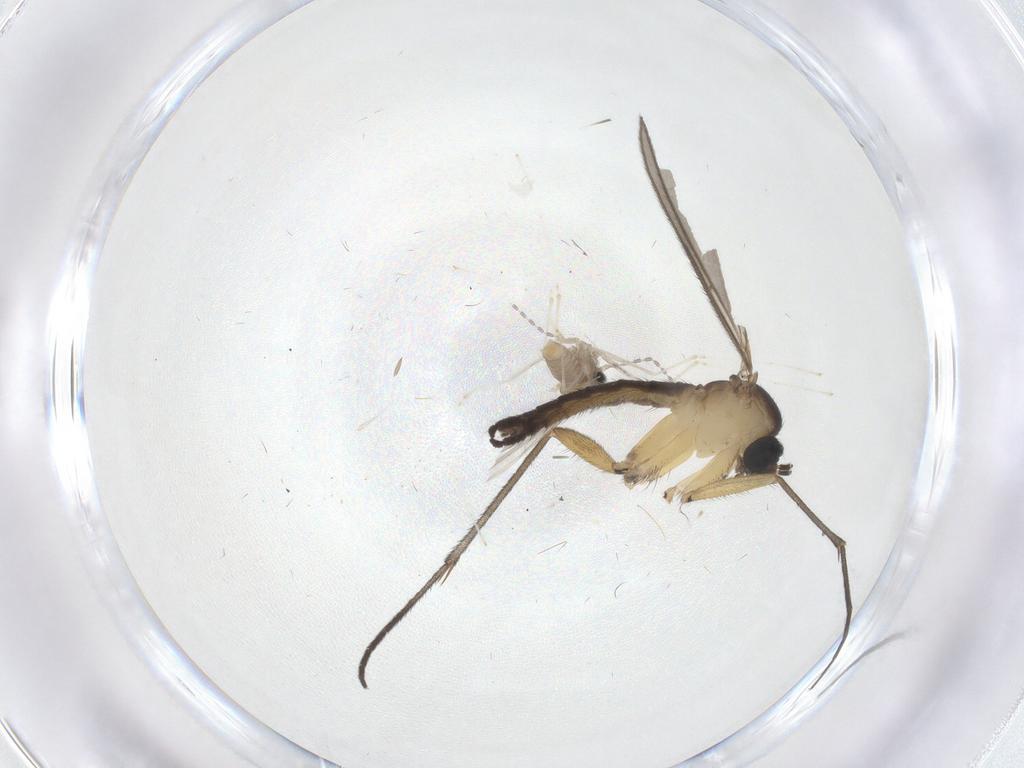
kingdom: Animalia
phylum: Arthropoda
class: Insecta
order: Diptera
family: Sciaridae
